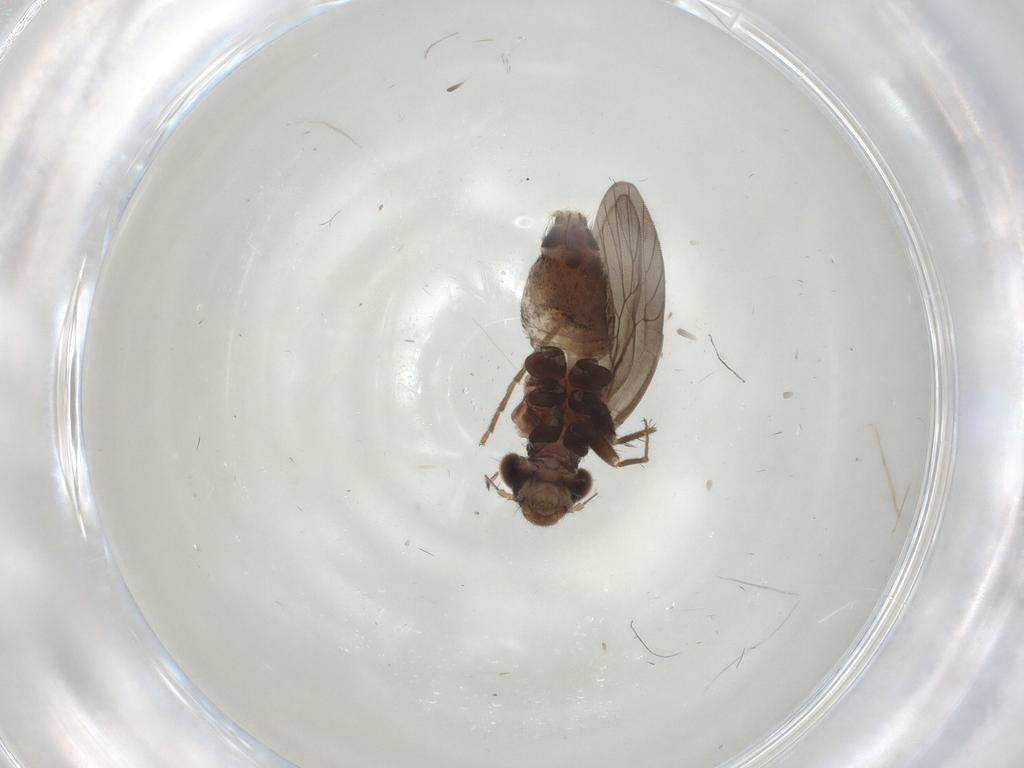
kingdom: Animalia
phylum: Arthropoda
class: Insecta
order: Psocodea
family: Lepidopsocidae
